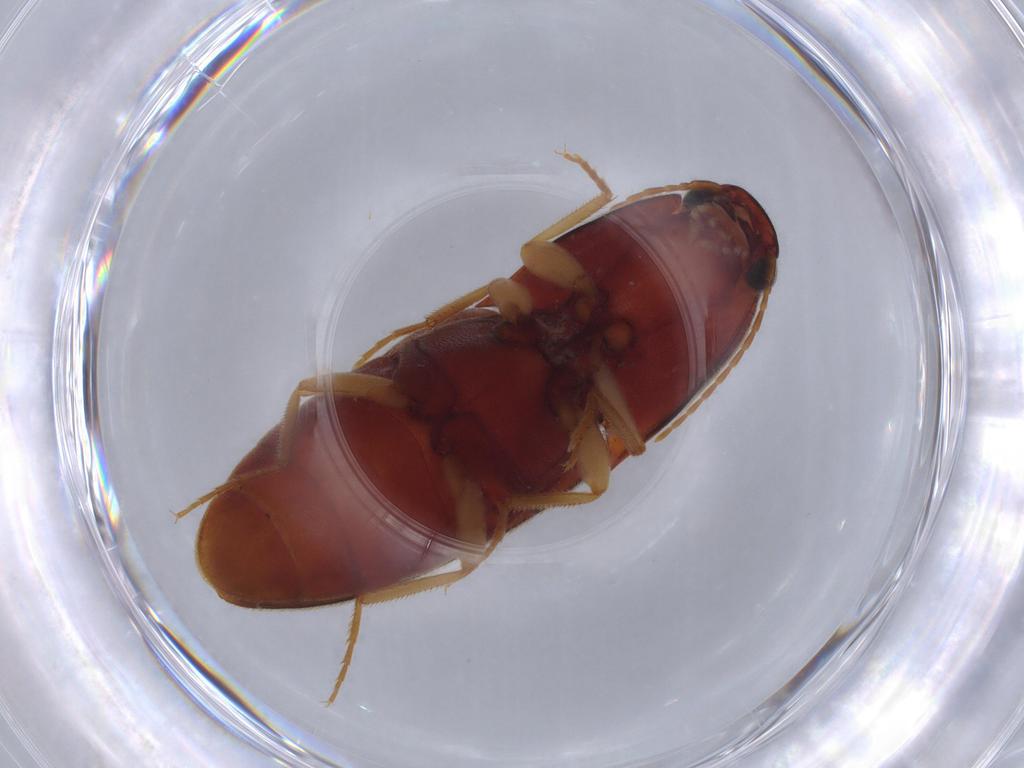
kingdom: Animalia
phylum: Arthropoda
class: Insecta
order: Coleoptera
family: Elateridae
